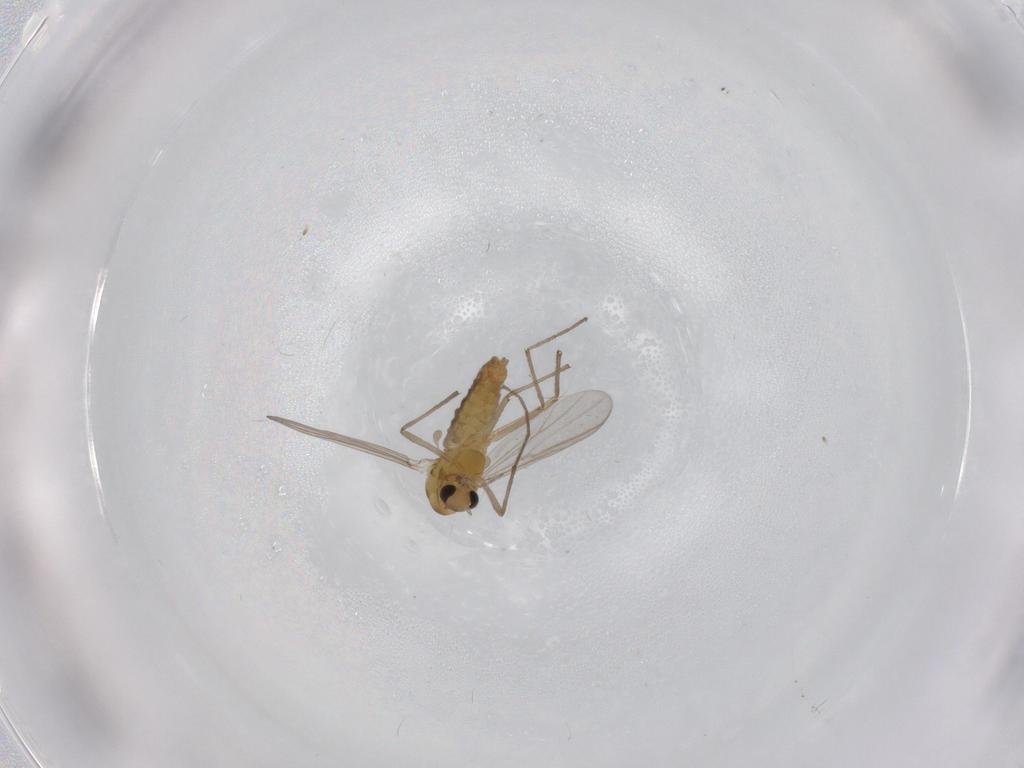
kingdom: Animalia
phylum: Arthropoda
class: Insecta
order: Diptera
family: Chironomidae
